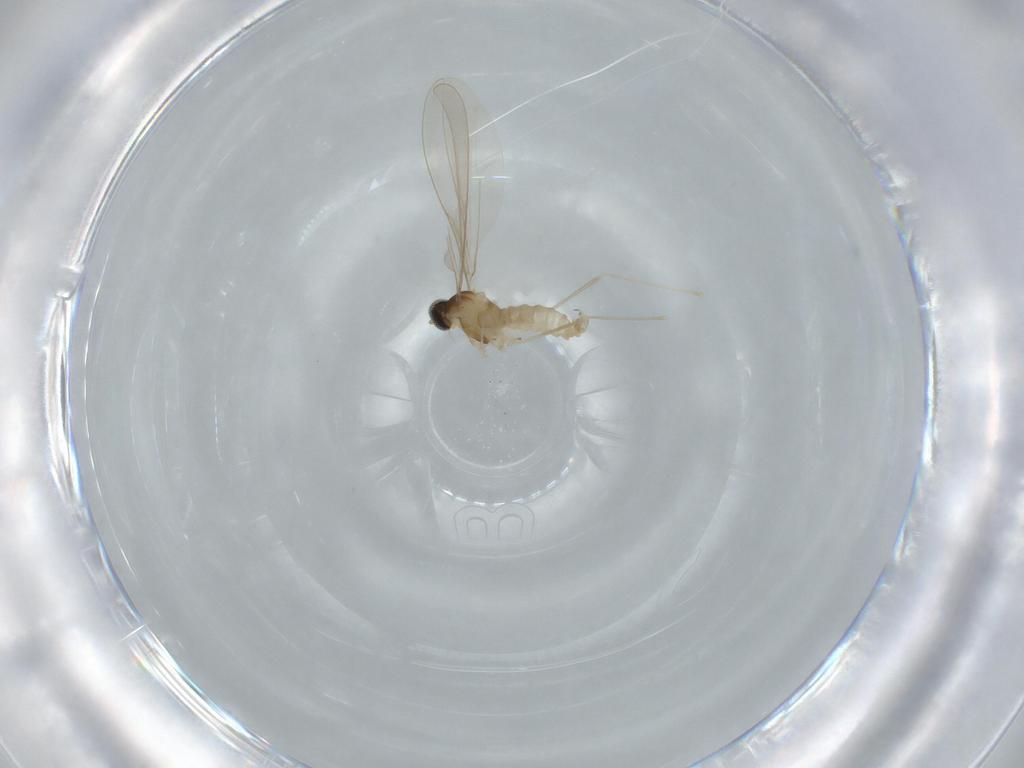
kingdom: Animalia
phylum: Arthropoda
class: Insecta
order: Diptera
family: Cecidomyiidae
